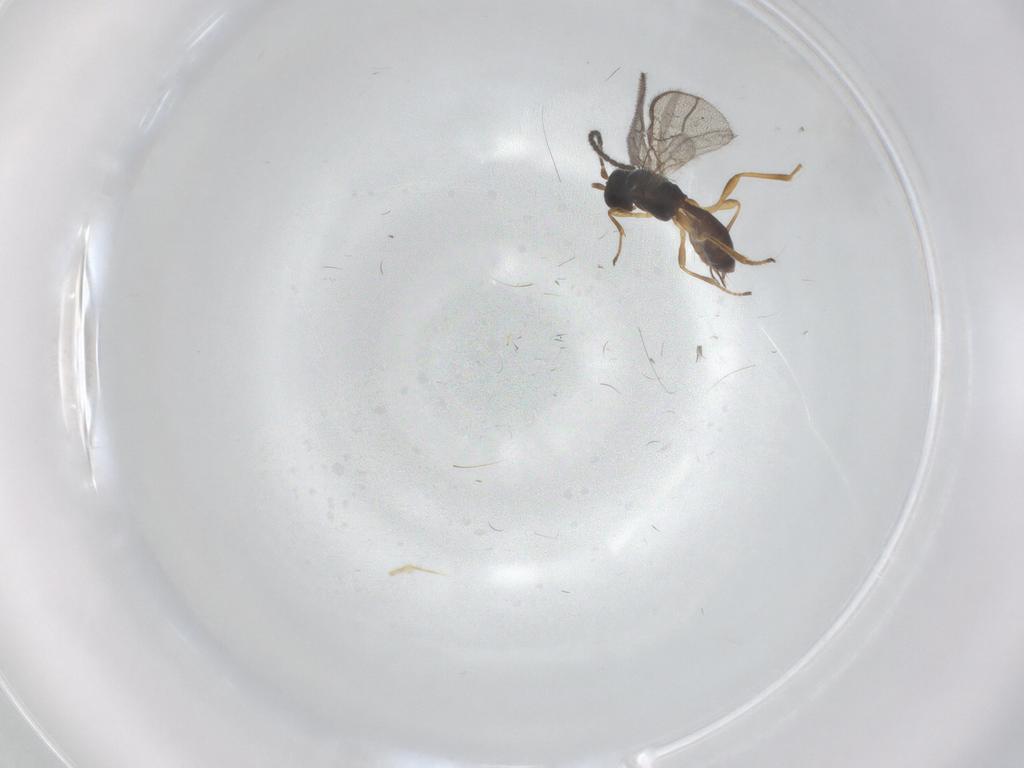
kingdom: Animalia
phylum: Arthropoda
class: Insecta
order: Hymenoptera
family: Braconidae
